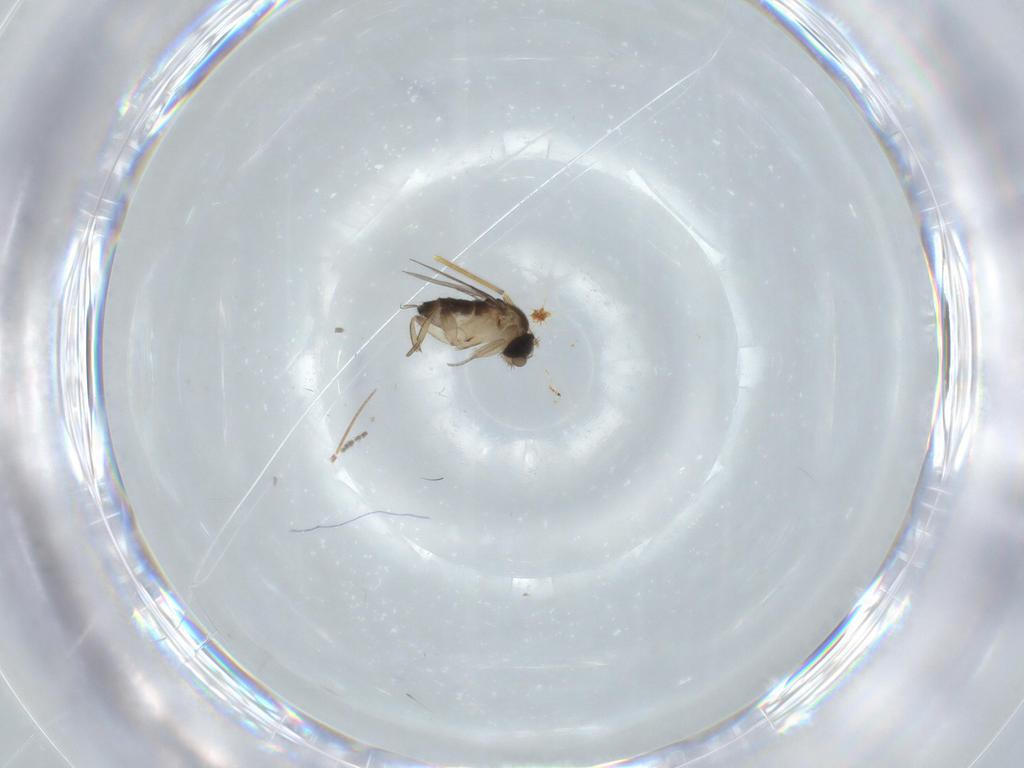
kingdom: Animalia
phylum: Arthropoda
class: Insecta
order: Diptera
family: Phoridae
